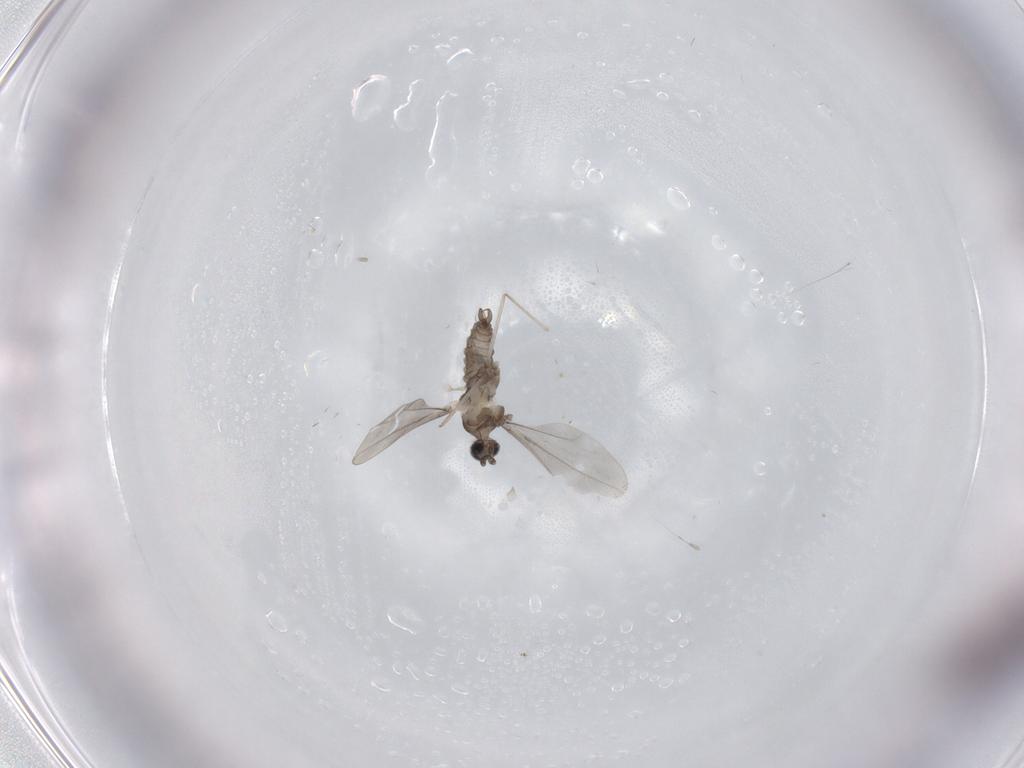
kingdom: Animalia
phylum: Arthropoda
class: Insecta
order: Diptera
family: Cecidomyiidae
